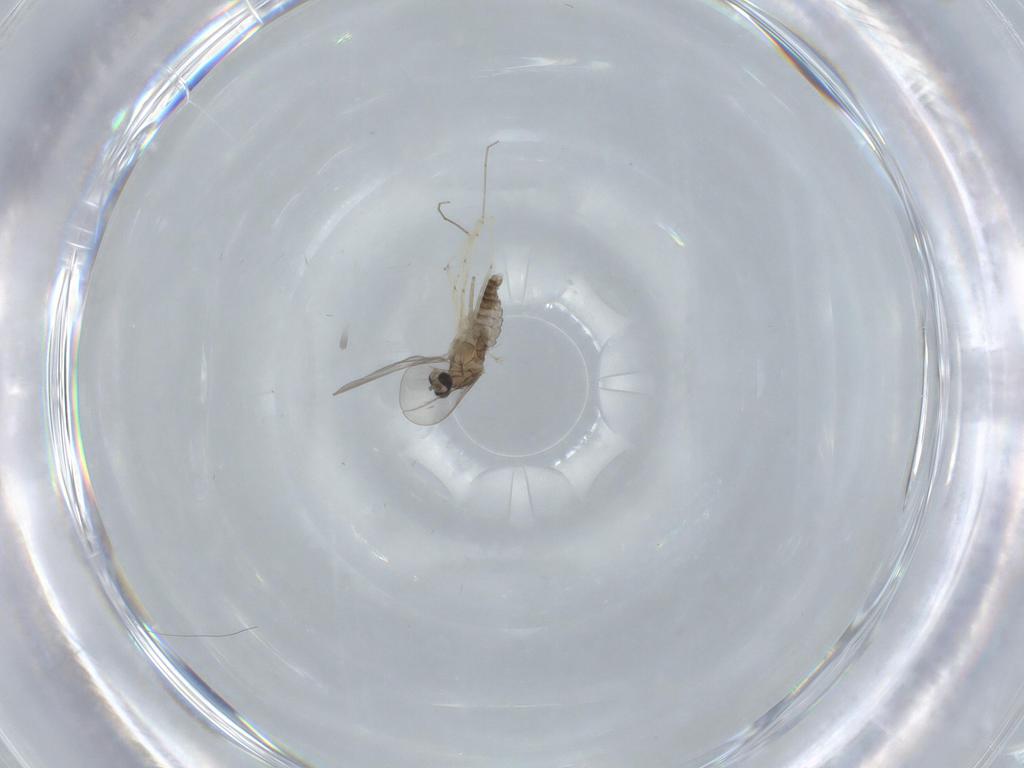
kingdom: Animalia
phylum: Arthropoda
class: Insecta
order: Diptera
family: Cecidomyiidae
